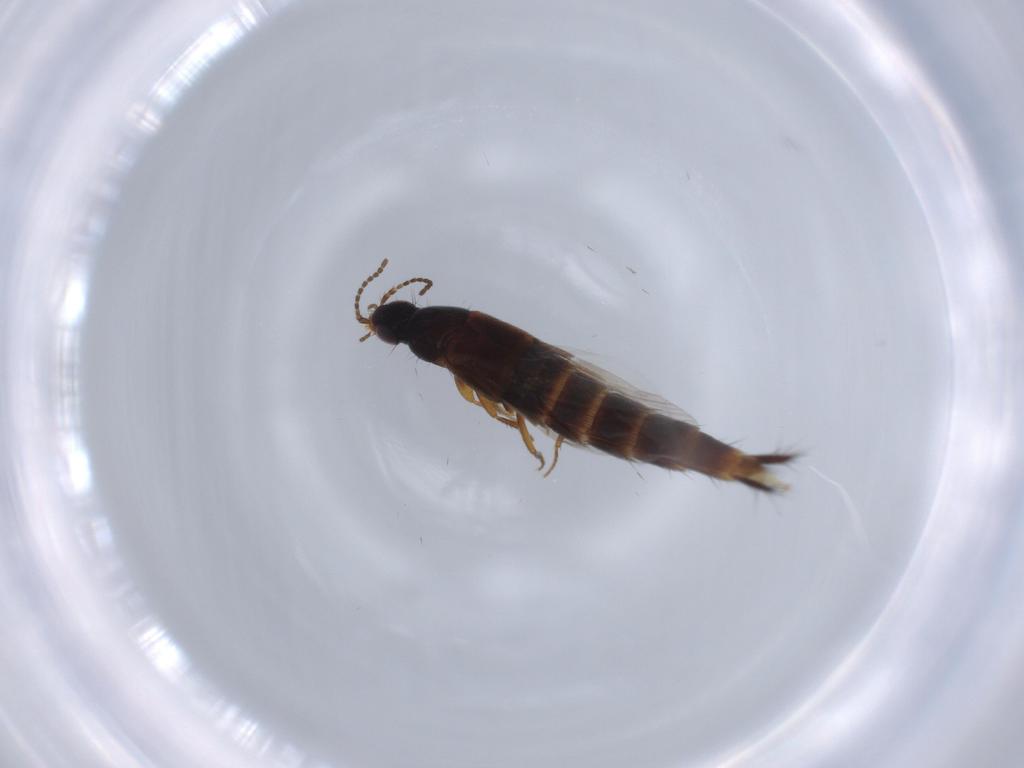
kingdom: Animalia
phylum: Arthropoda
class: Insecta
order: Coleoptera
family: Staphylinidae
